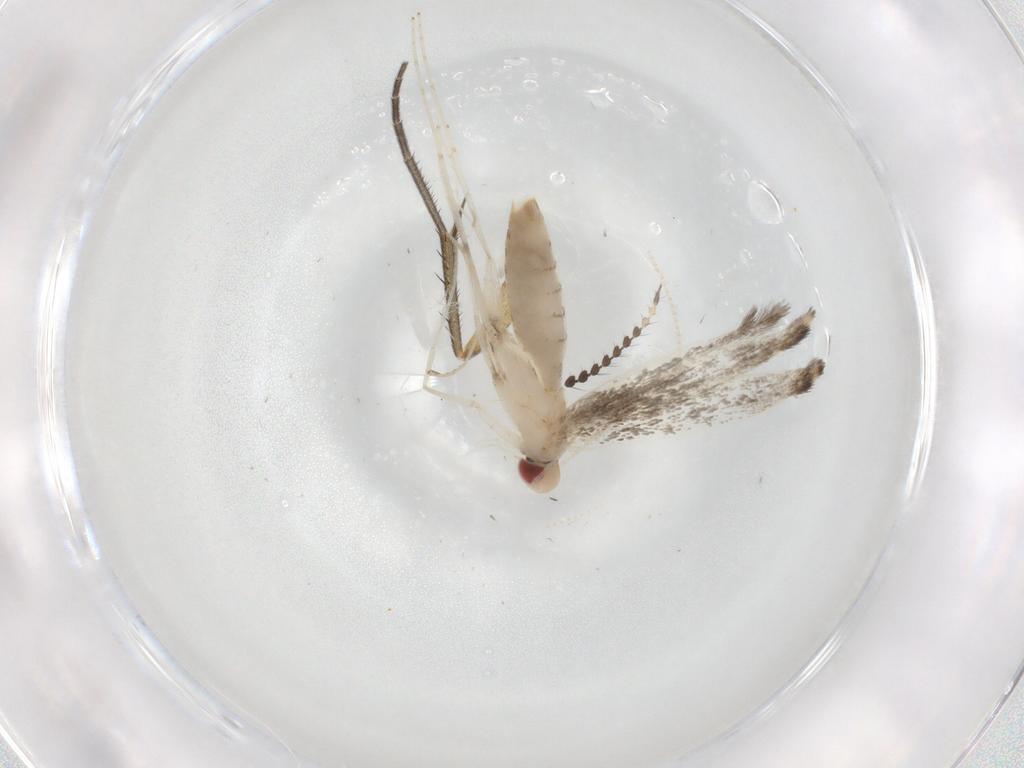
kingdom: Animalia
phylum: Arthropoda
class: Insecta
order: Lepidoptera
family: Gracillariidae
